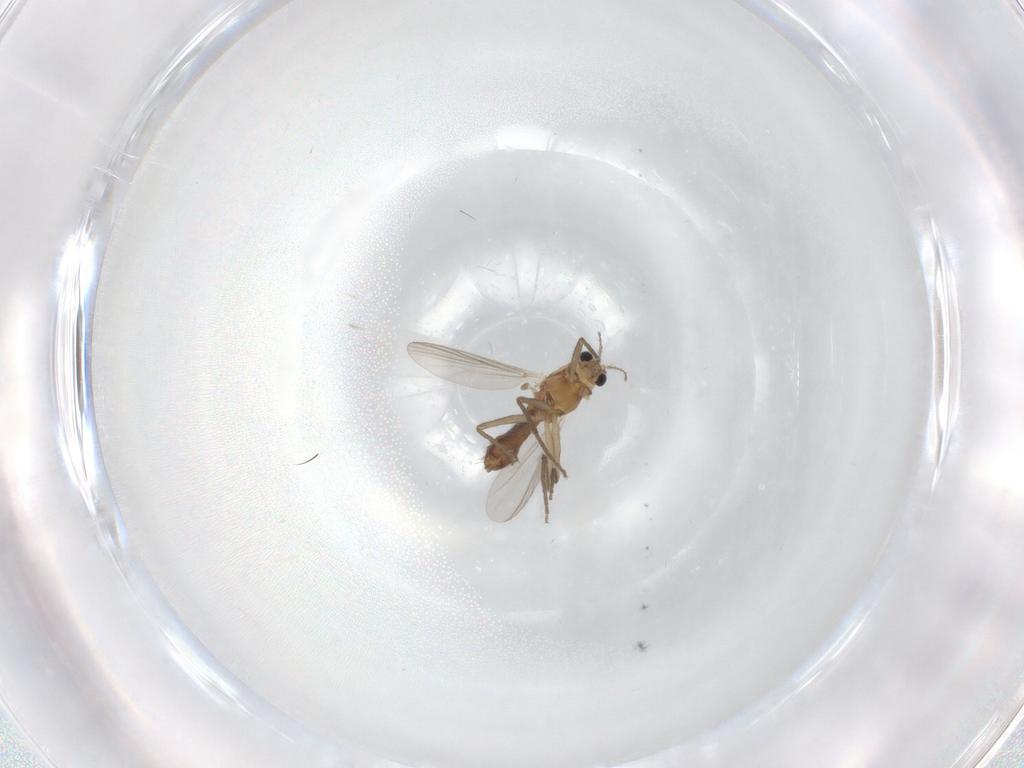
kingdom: Animalia
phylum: Arthropoda
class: Insecta
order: Diptera
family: Chironomidae
